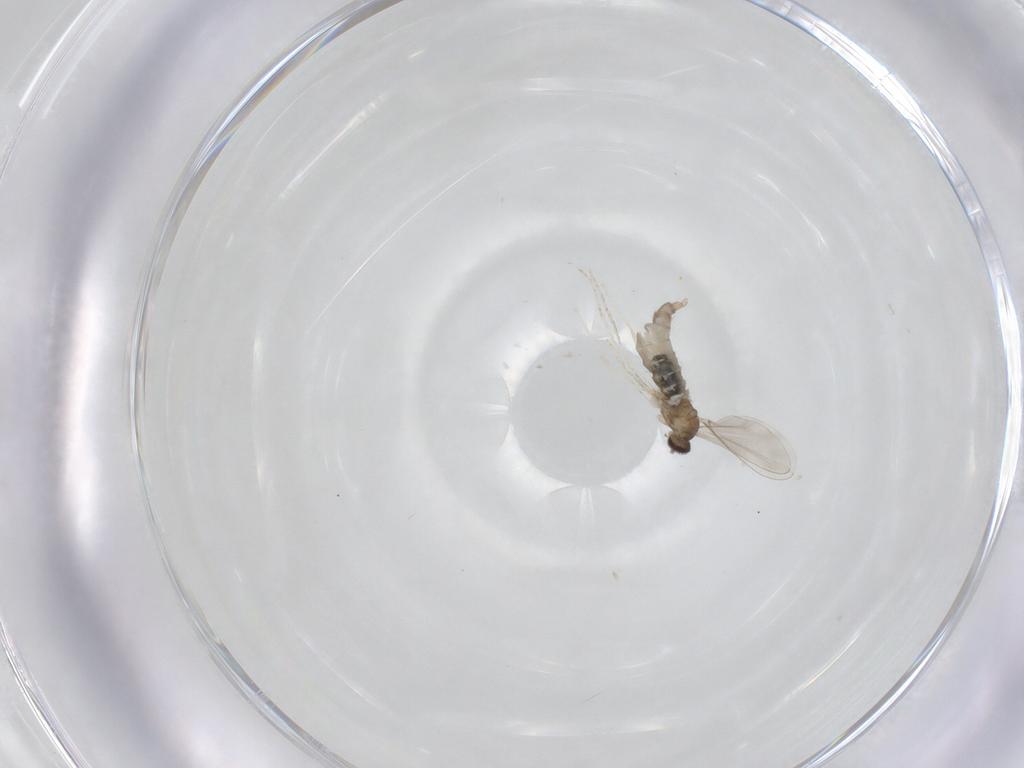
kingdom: Animalia
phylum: Arthropoda
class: Insecta
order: Diptera
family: Cecidomyiidae
